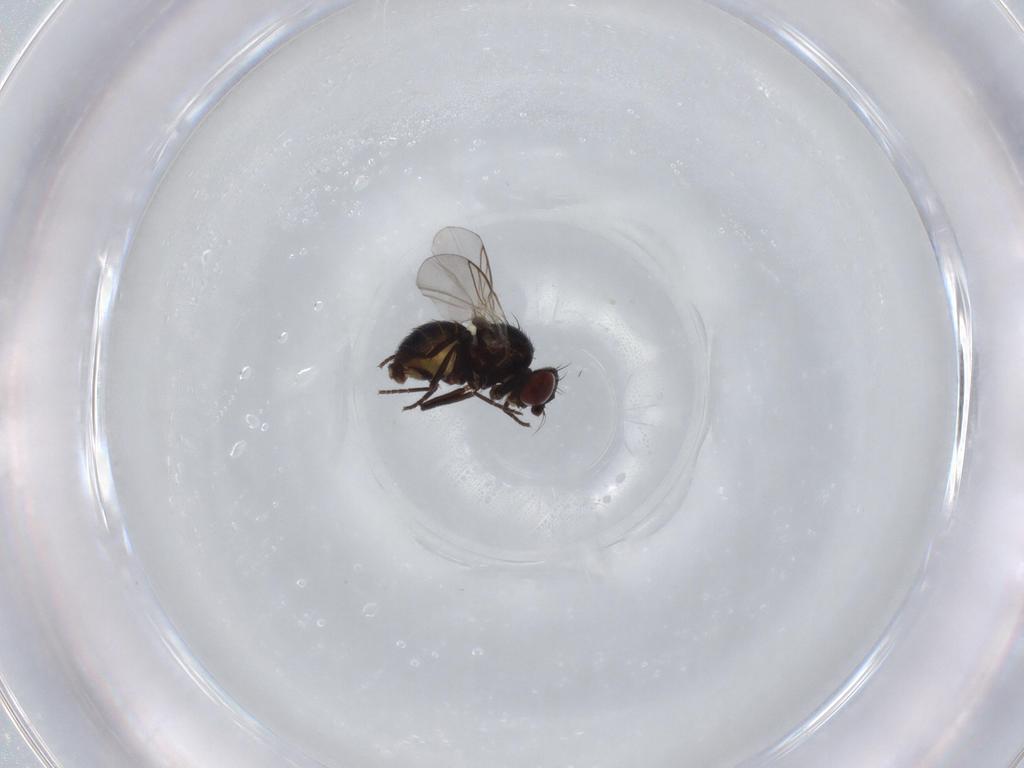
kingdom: Animalia
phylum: Arthropoda
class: Insecta
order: Diptera
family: Agromyzidae
